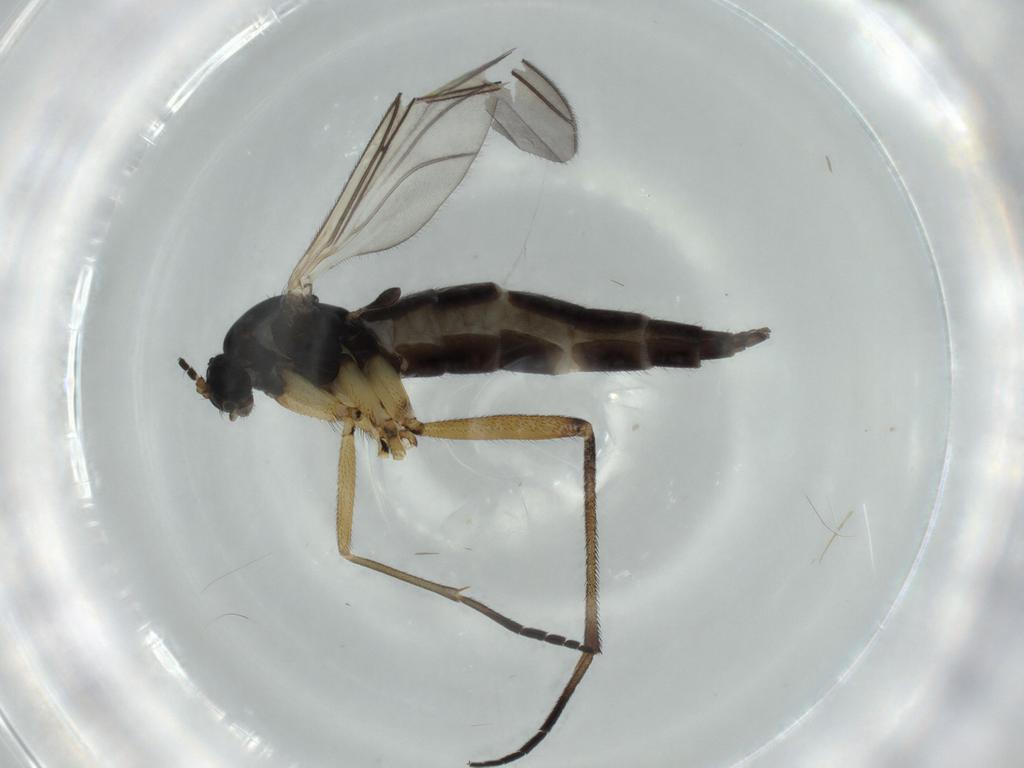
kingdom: Animalia
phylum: Arthropoda
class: Insecta
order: Diptera
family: Sciaridae
